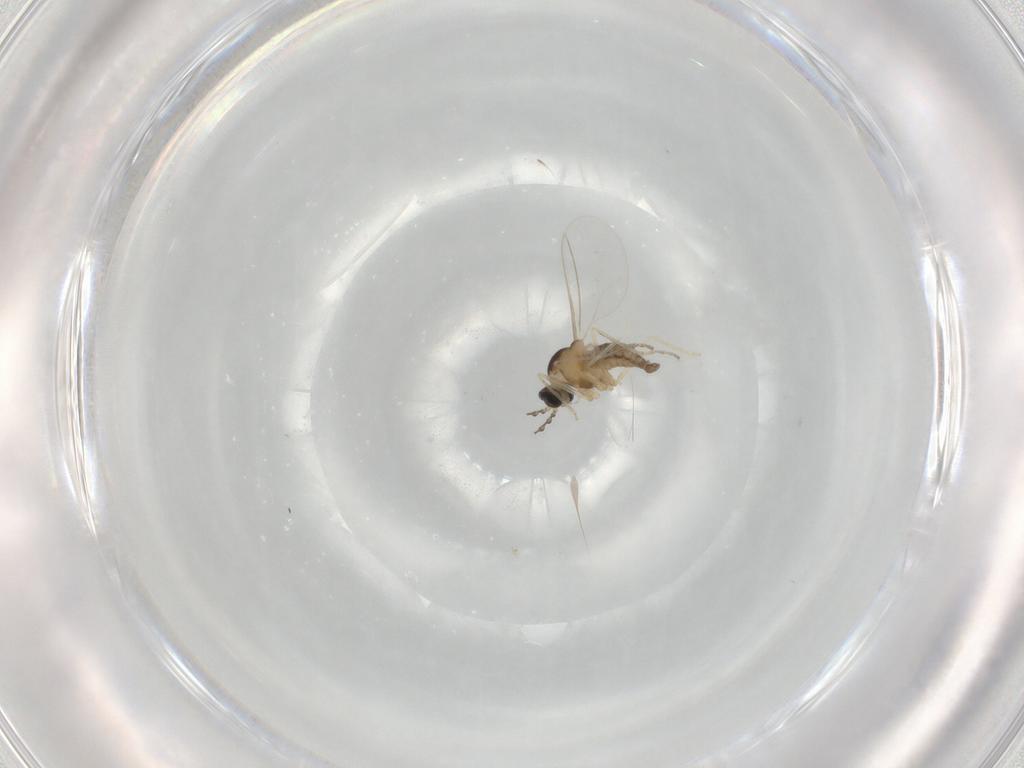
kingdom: Animalia
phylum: Arthropoda
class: Insecta
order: Diptera
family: Cecidomyiidae
